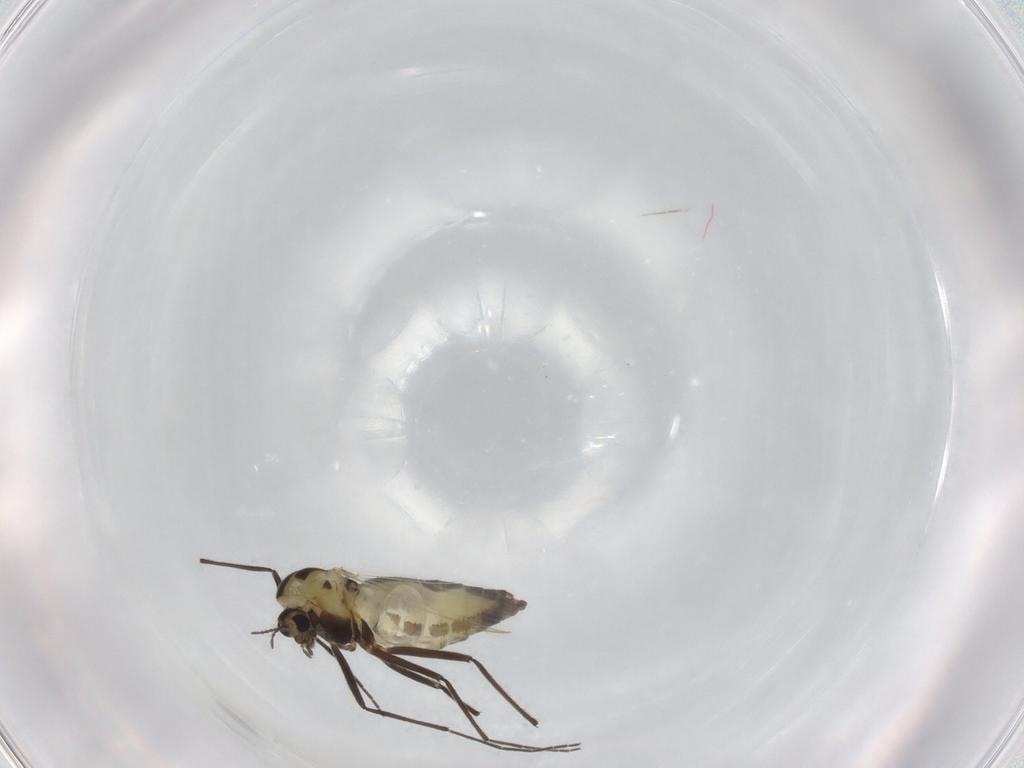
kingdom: Animalia
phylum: Arthropoda
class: Insecta
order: Diptera
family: Chironomidae
